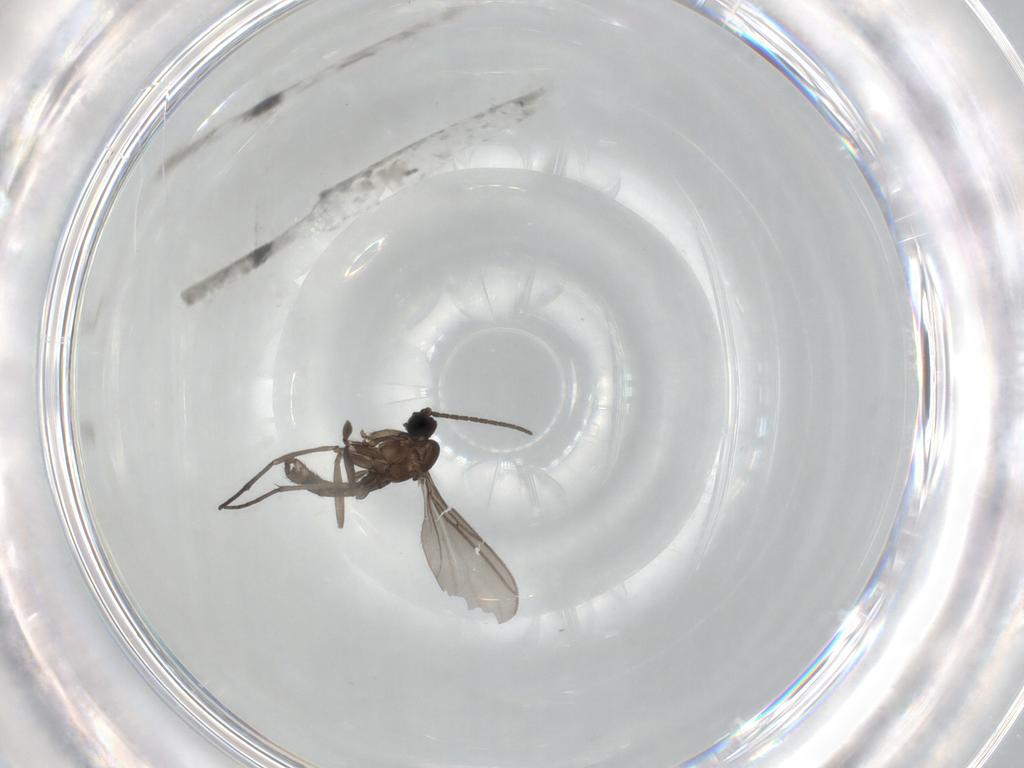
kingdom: Animalia
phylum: Arthropoda
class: Insecta
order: Diptera
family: Sciaridae
